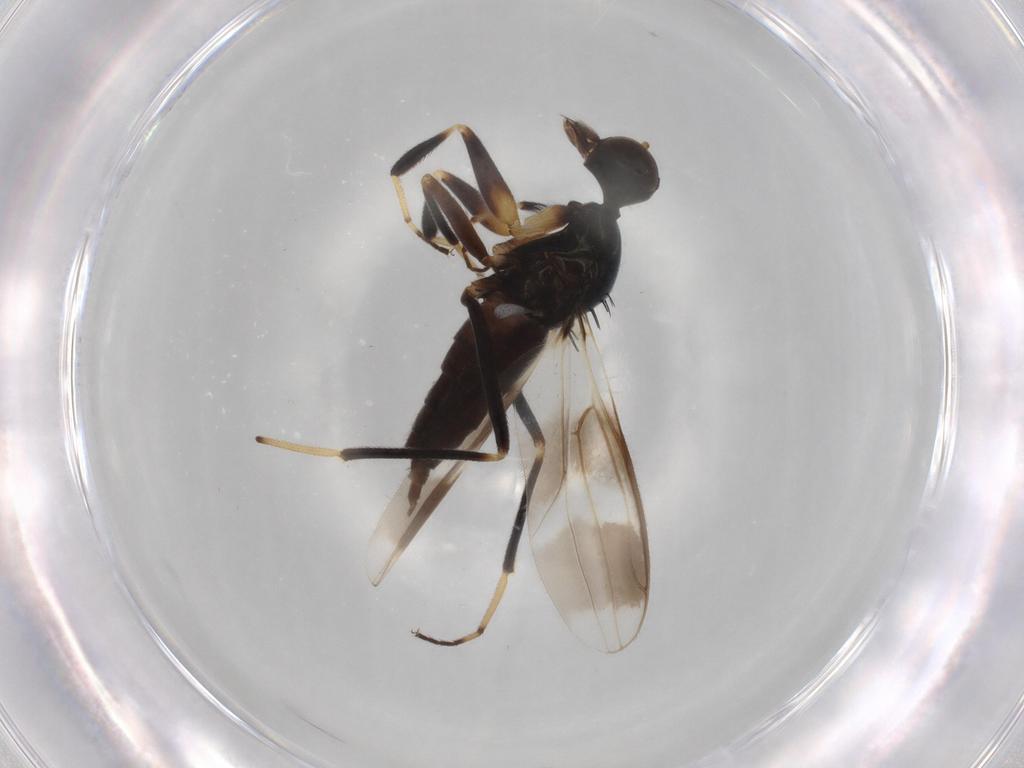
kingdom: Animalia
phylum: Arthropoda
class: Insecta
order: Diptera
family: Hybotidae
